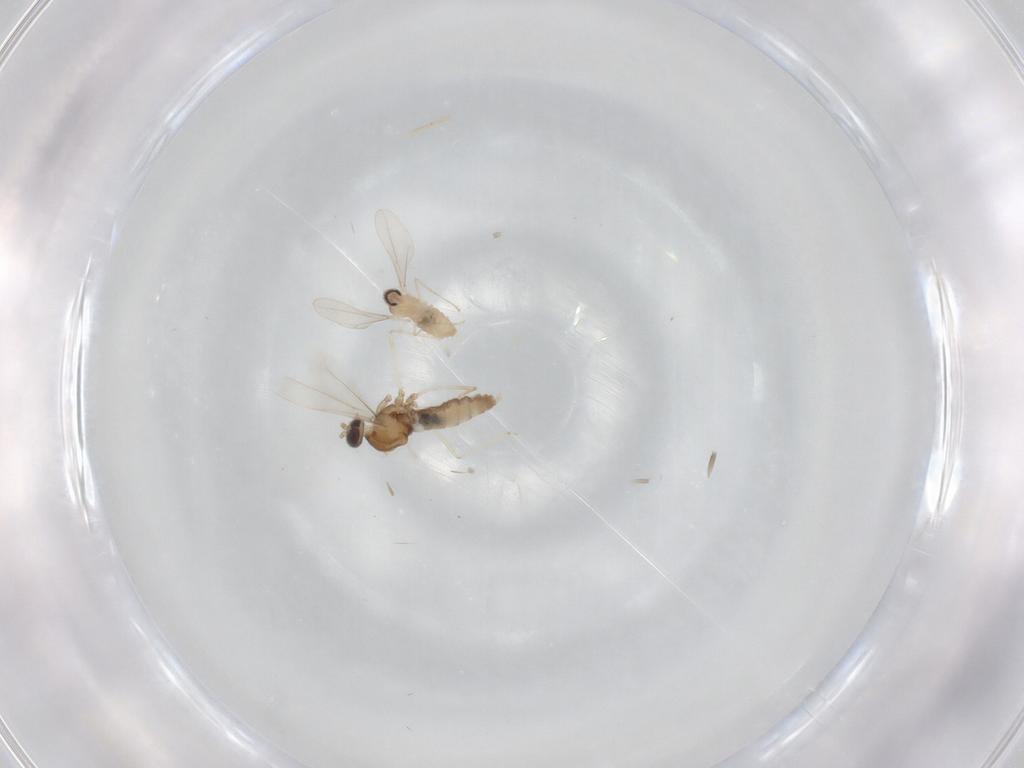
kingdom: Animalia
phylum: Arthropoda
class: Insecta
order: Diptera
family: Cecidomyiidae
